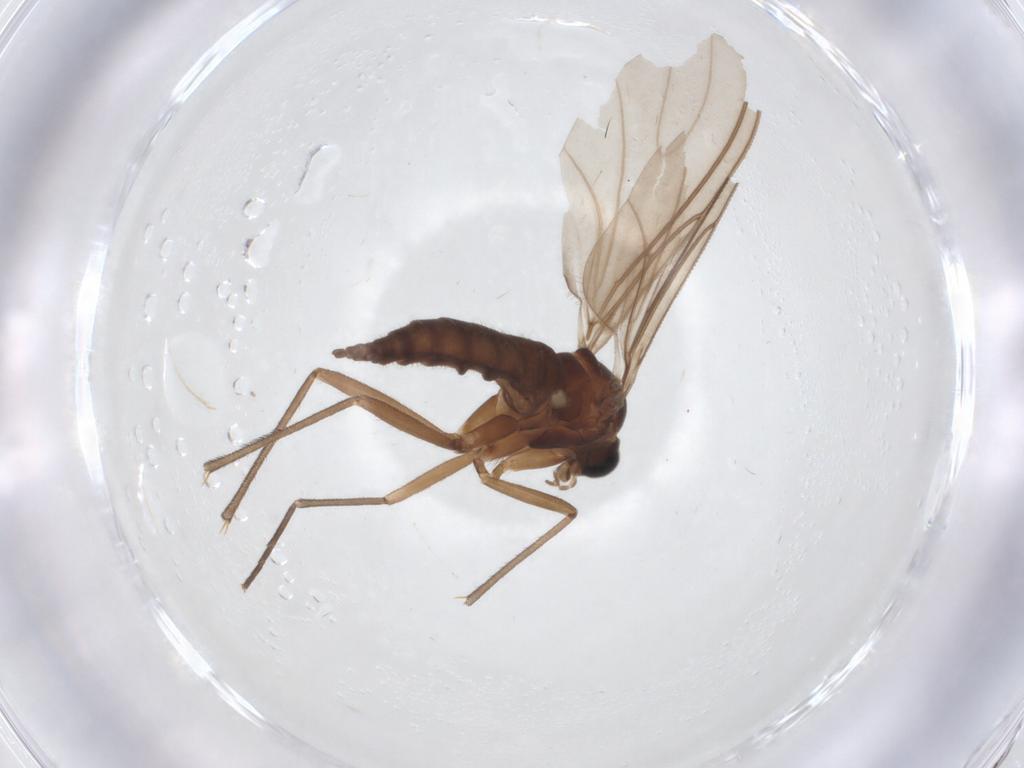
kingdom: Animalia
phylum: Arthropoda
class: Insecta
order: Diptera
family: Sciaridae
